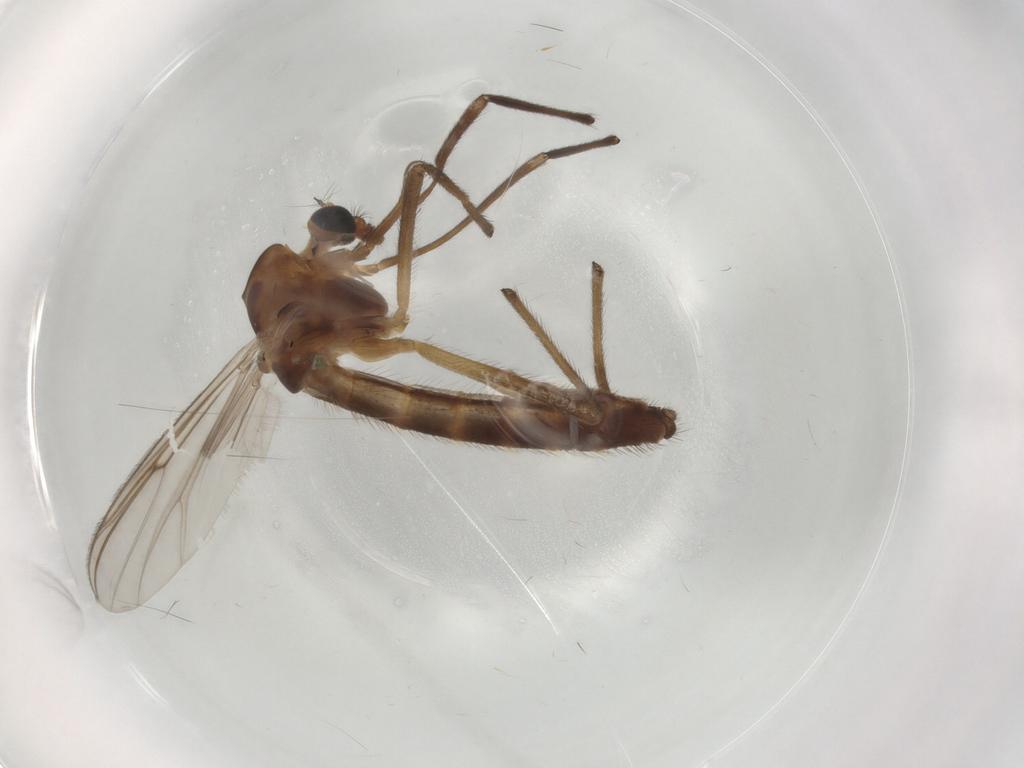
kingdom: Animalia
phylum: Arthropoda
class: Insecta
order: Diptera
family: Chironomidae
